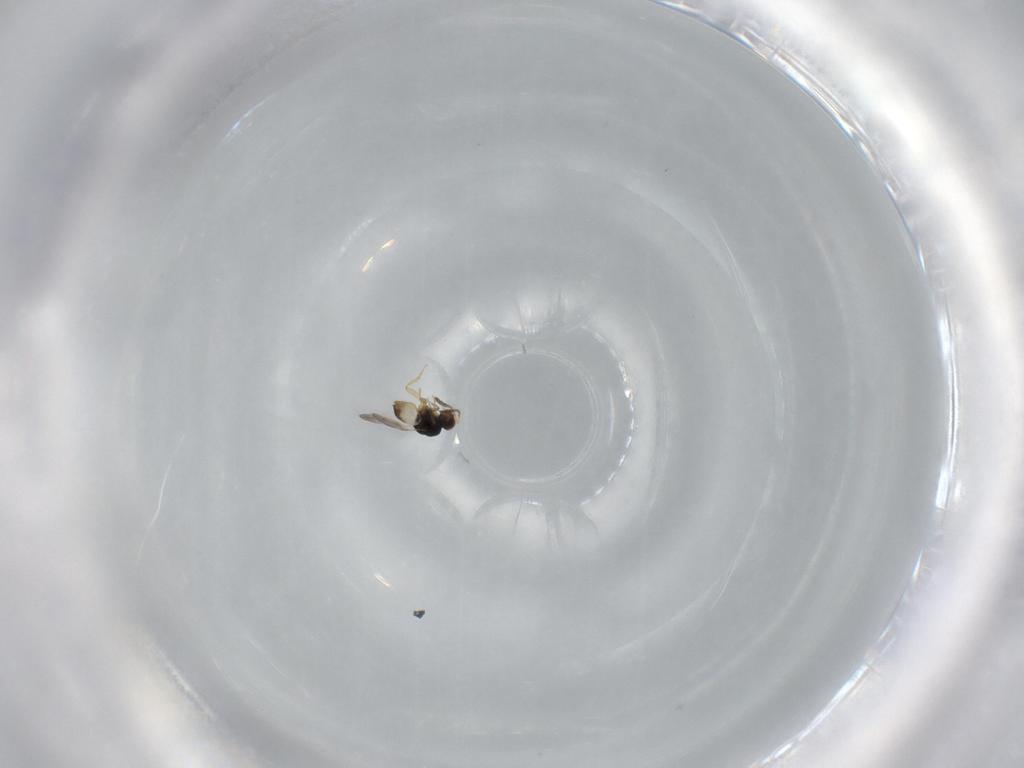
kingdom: Animalia
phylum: Arthropoda
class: Insecta
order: Hymenoptera
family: Ceraphronidae
